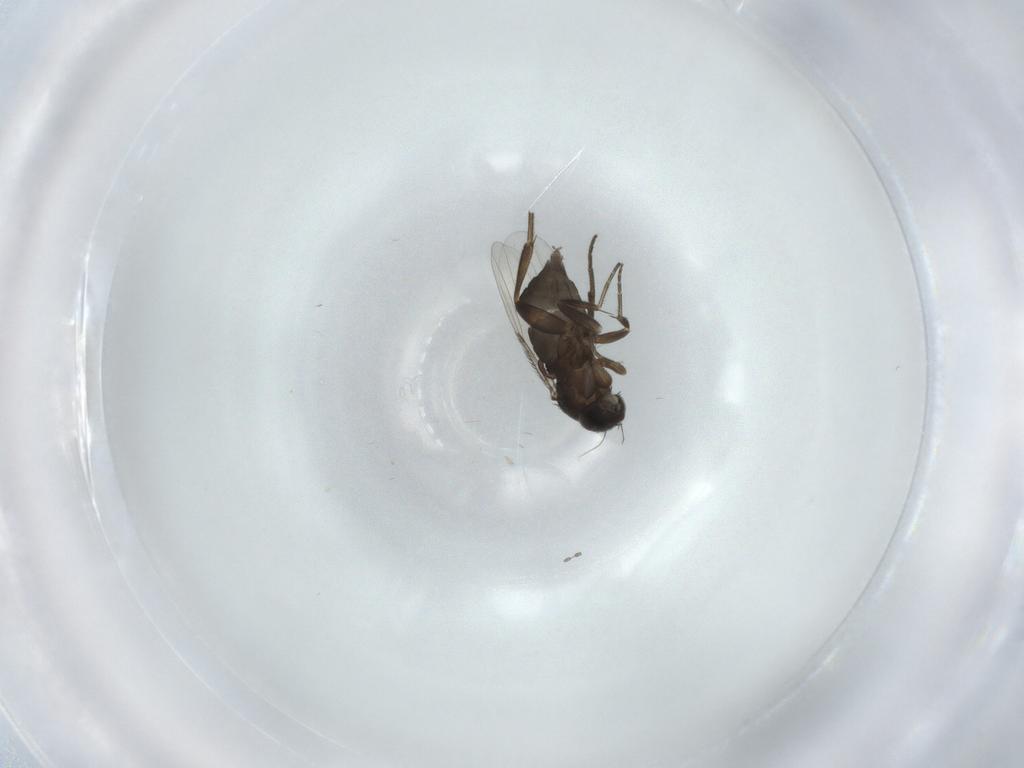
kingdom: Animalia
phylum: Arthropoda
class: Insecta
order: Diptera
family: Phoridae
